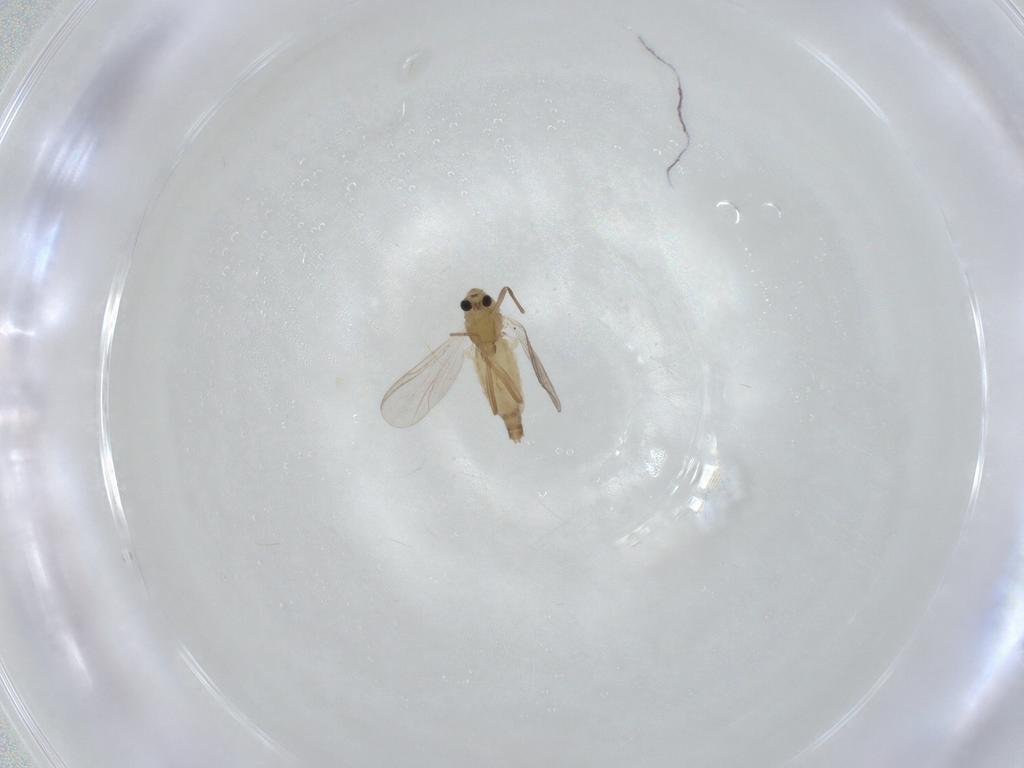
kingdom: Animalia
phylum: Arthropoda
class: Insecta
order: Diptera
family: Chironomidae
